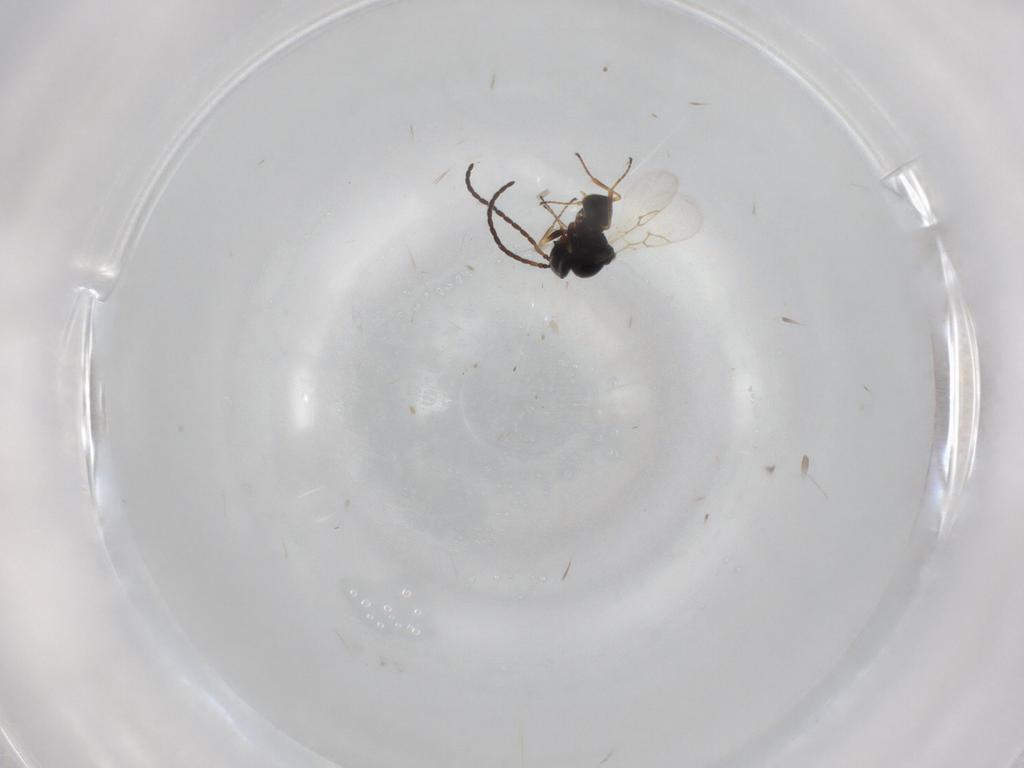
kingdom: Animalia
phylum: Arthropoda
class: Insecta
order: Hymenoptera
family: Figitidae
